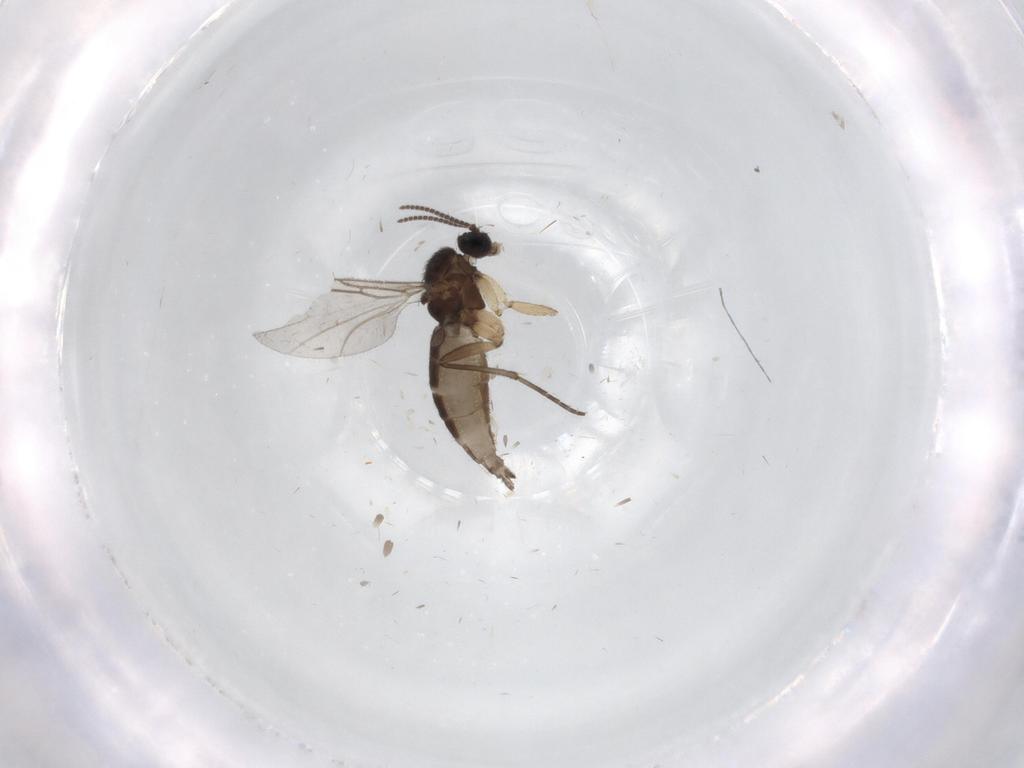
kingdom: Animalia
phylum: Arthropoda
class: Insecta
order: Diptera
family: Sciaridae
